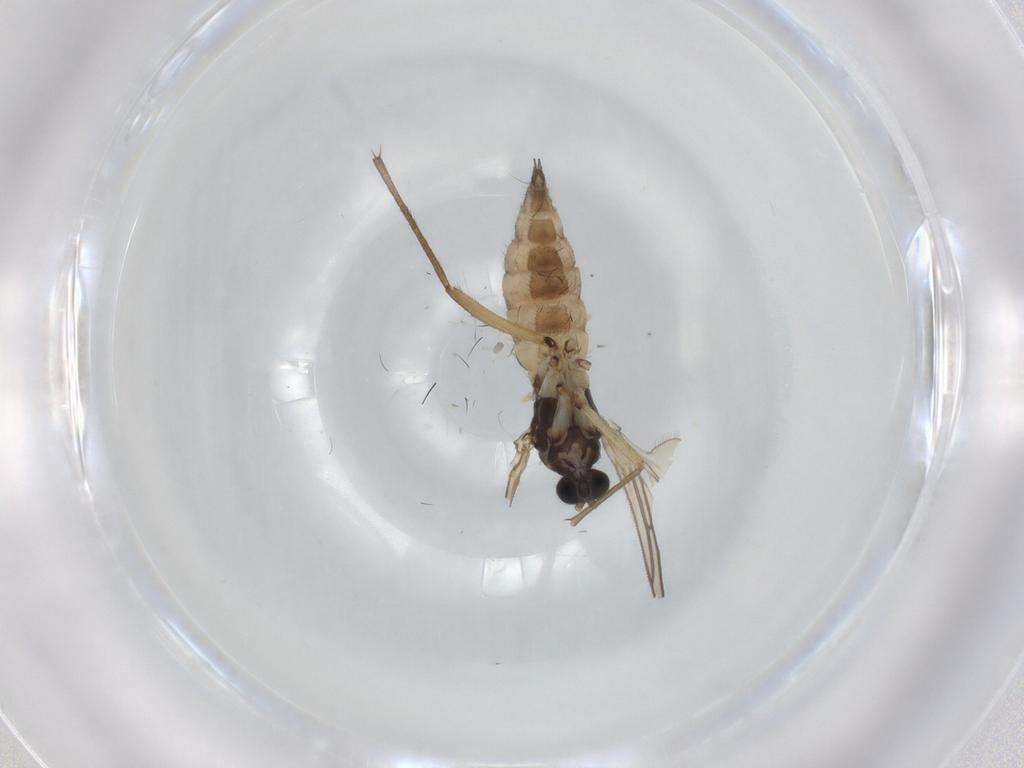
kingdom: Animalia
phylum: Arthropoda
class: Insecta
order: Diptera
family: Sciaridae
